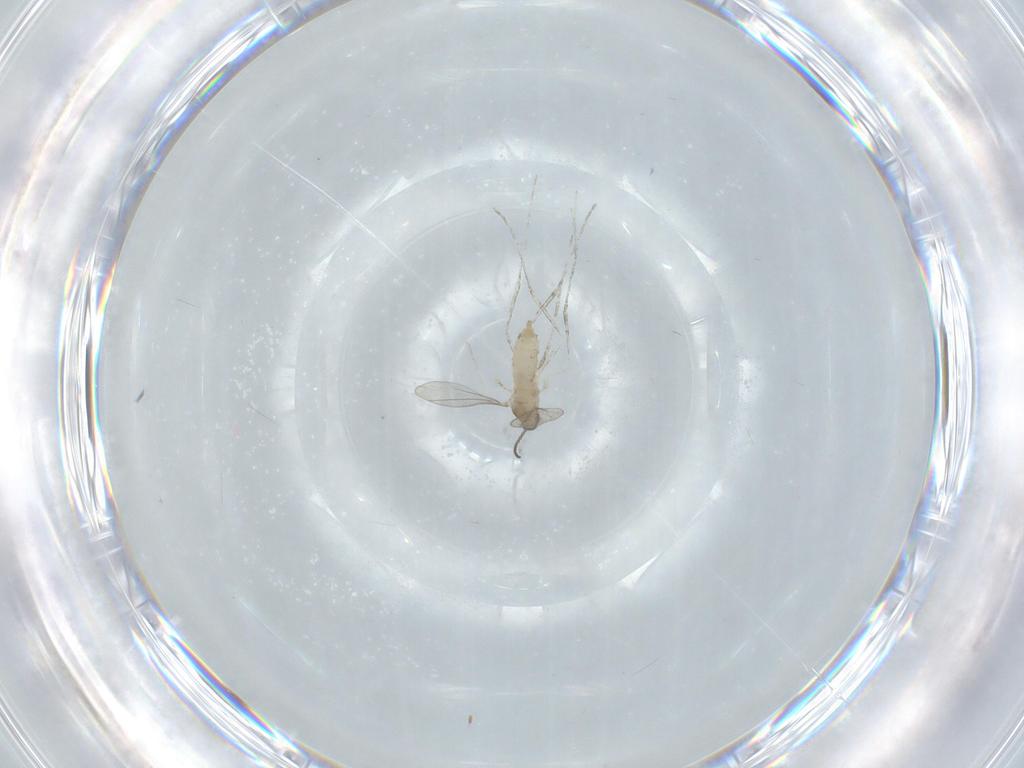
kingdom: Animalia
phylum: Arthropoda
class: Insecta
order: Diptera
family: Cecidomyiidae
